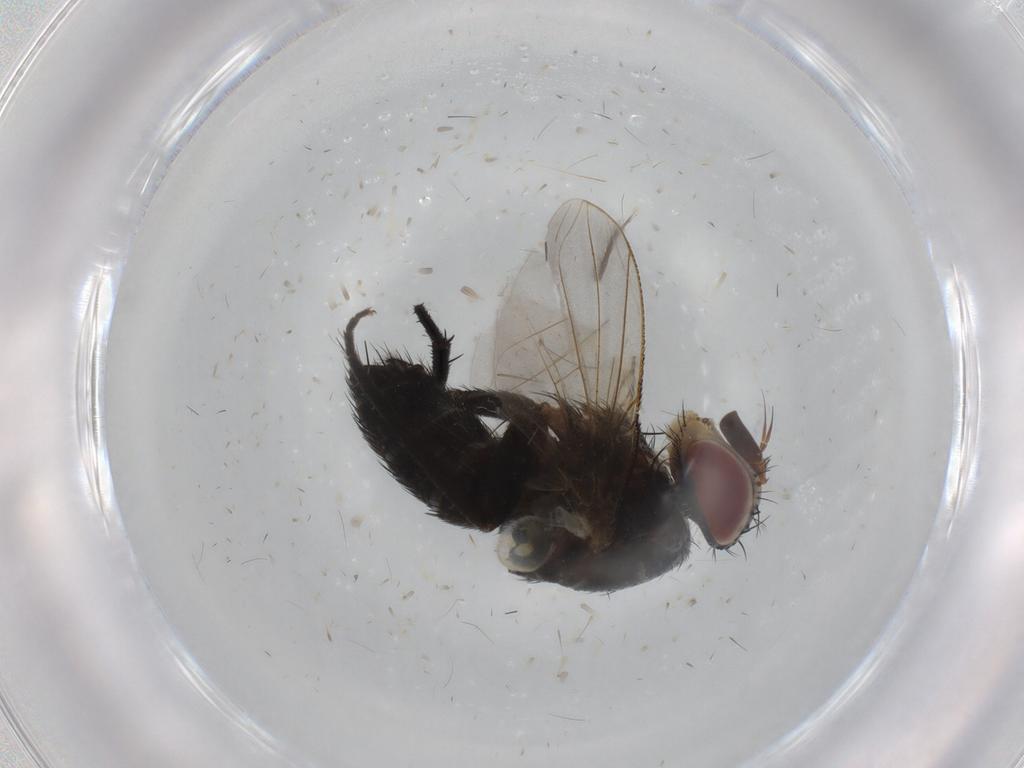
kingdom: Animalia
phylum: Arthropoda
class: Insecta
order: Diptera
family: Tachinidae
